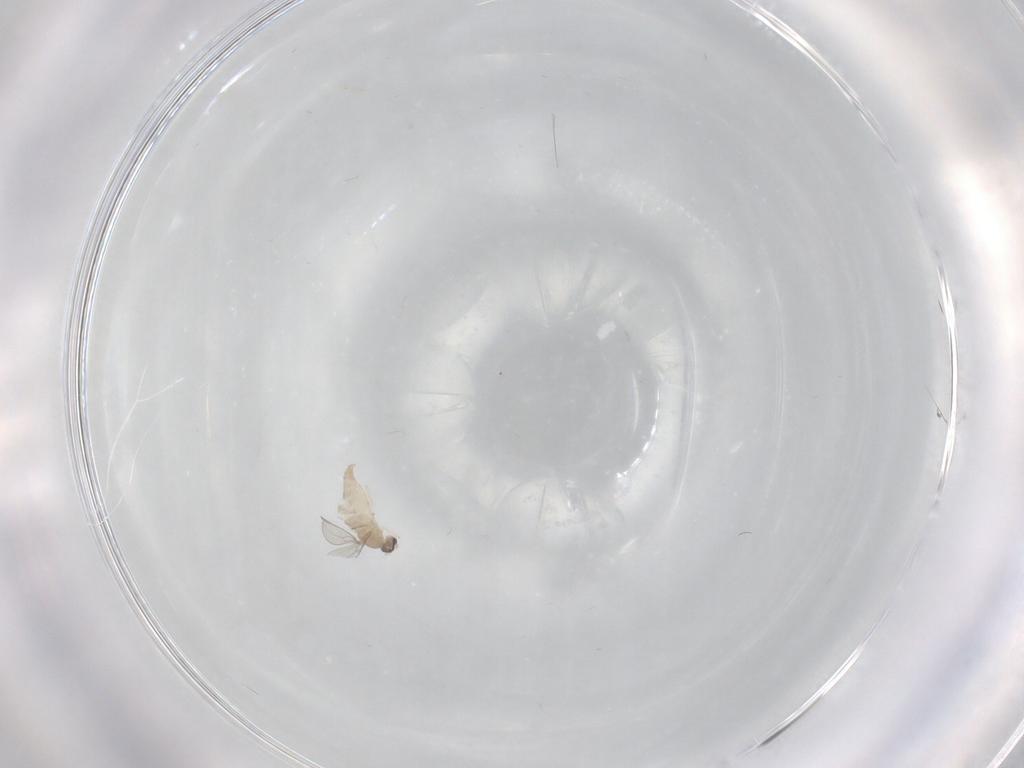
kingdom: Animalia
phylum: Arthropoda
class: Insecta
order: Diptera
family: Cecidomyiidae
